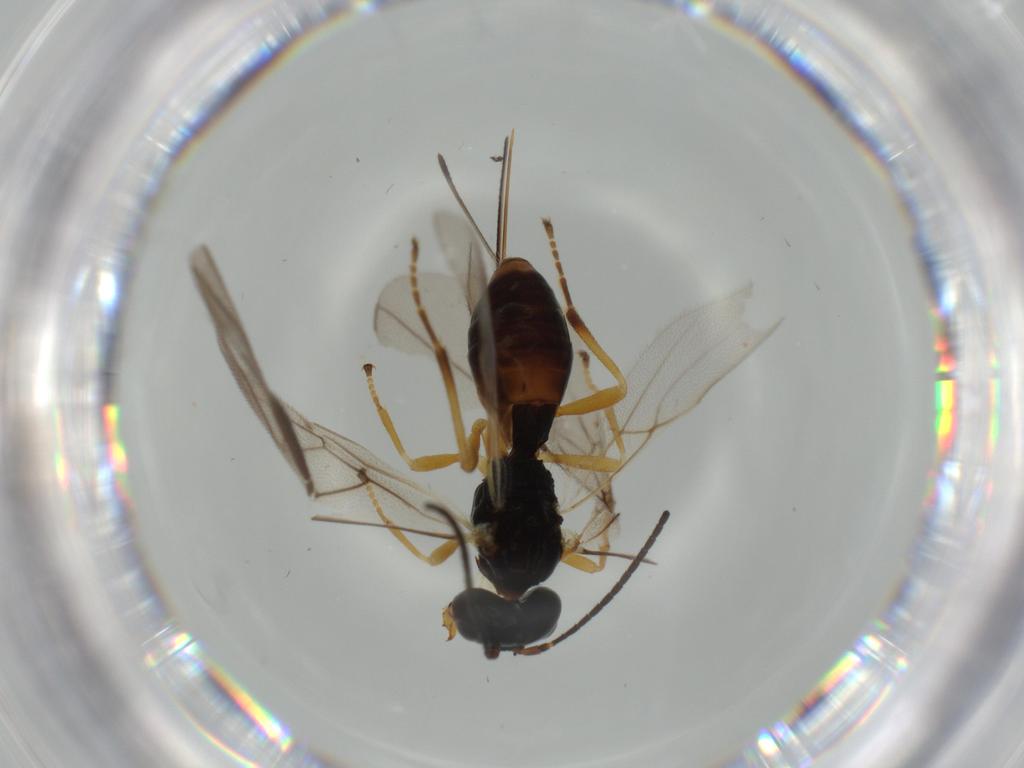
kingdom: Animalia
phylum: Arthropoda
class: Insecta
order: Hymenoptera
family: Braconidae
